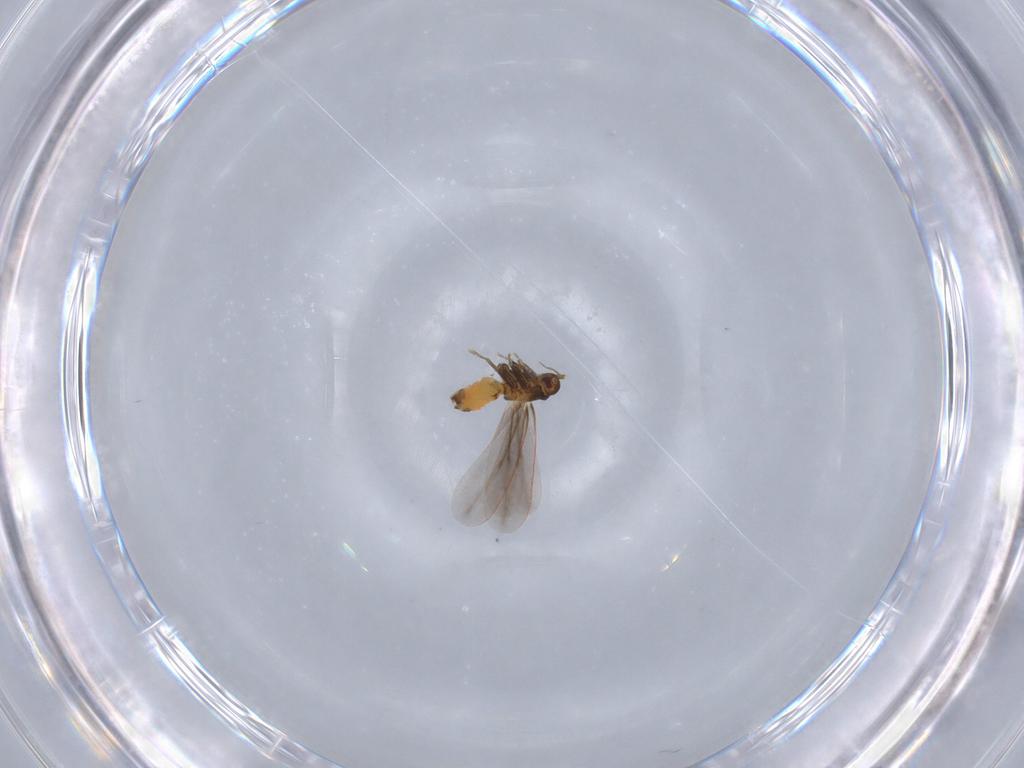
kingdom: Animalia
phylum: Arthropoda
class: Insecta
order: Hemiptera
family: Aleyrodidae
